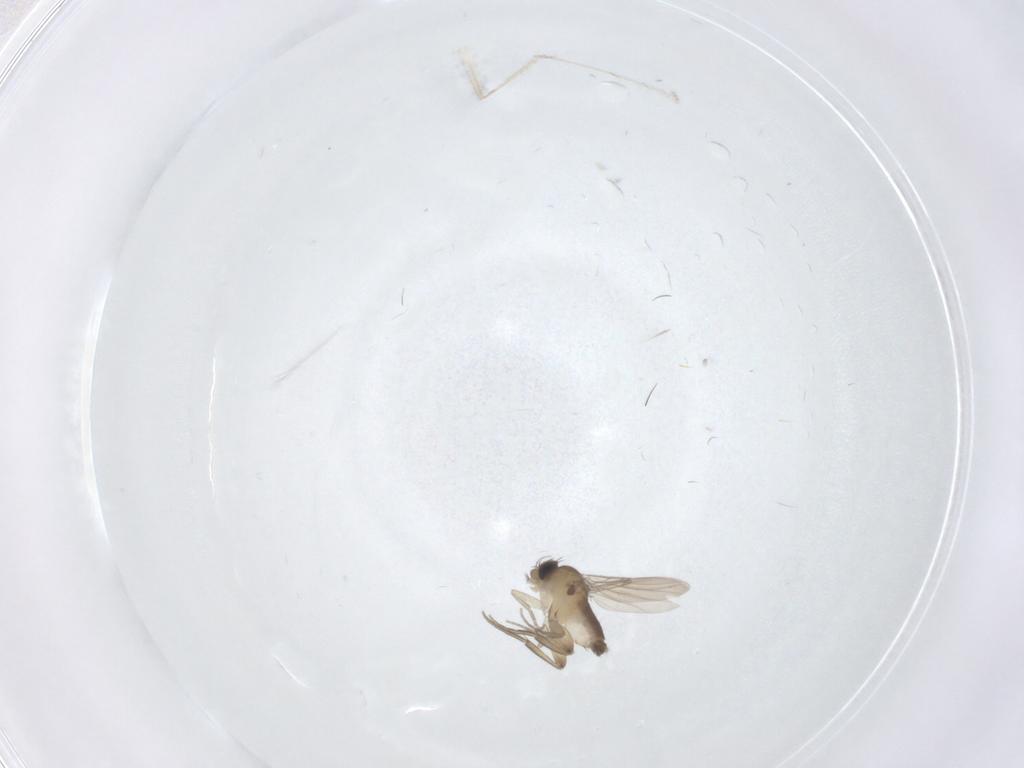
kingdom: Animalia
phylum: Arthropoda
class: Insecta
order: Diptera
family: Phoridae
